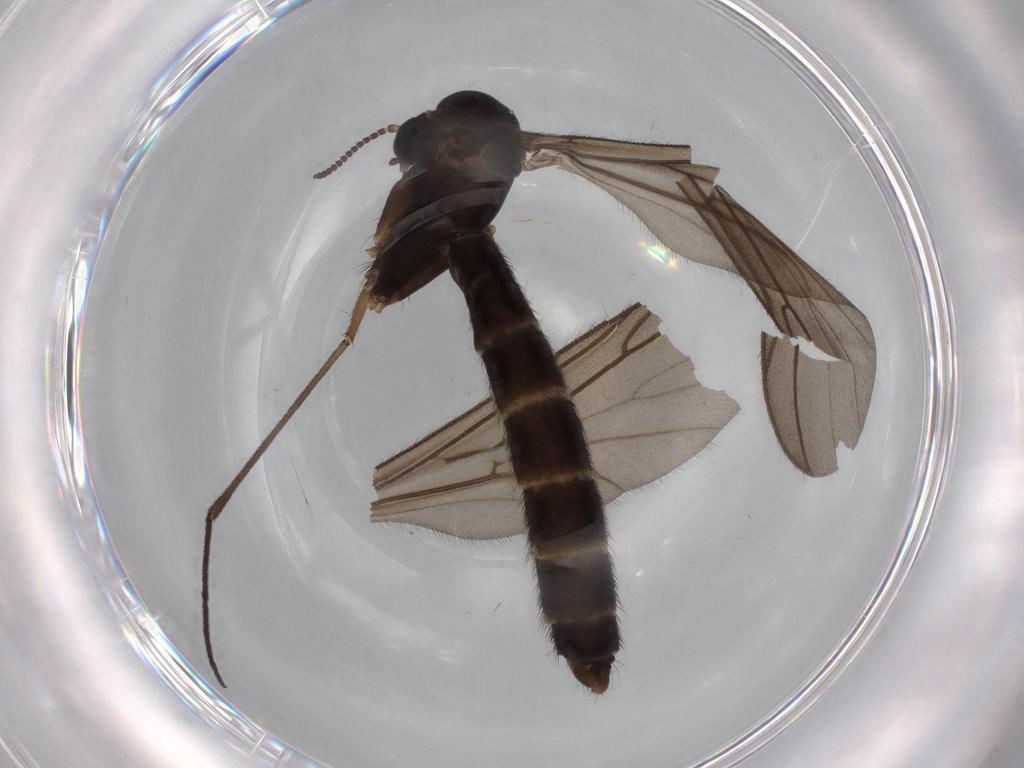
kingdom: Animalia
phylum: Arthropoda
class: Insecta
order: Diptera
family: Ditomyiidae
